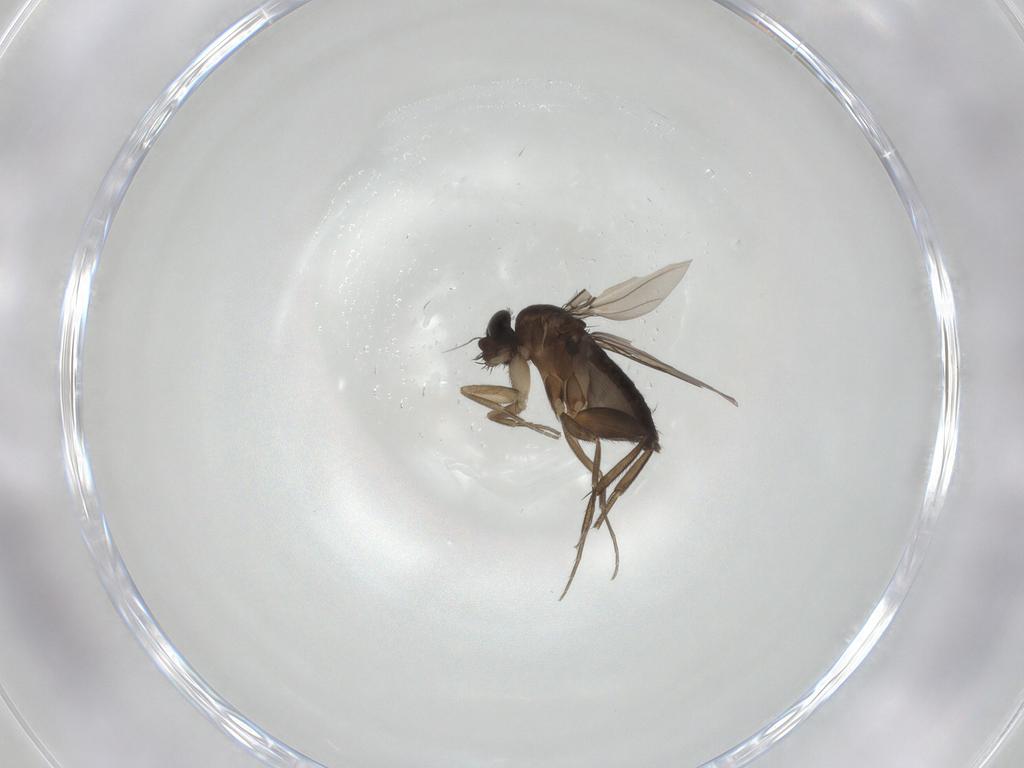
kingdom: Animalia
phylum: Arthropoda
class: Insecta
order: Diptera
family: Phoridae
